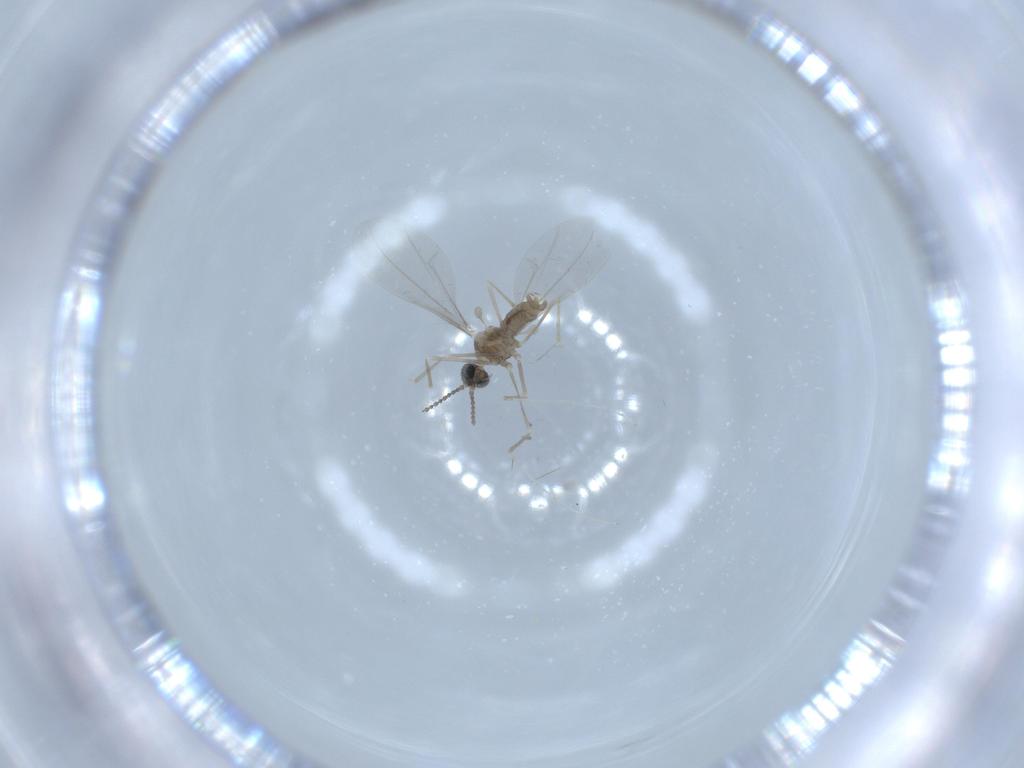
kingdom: Animalia
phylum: Arthropoda
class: Insecta
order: Diptera
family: Cecidomyiidae
